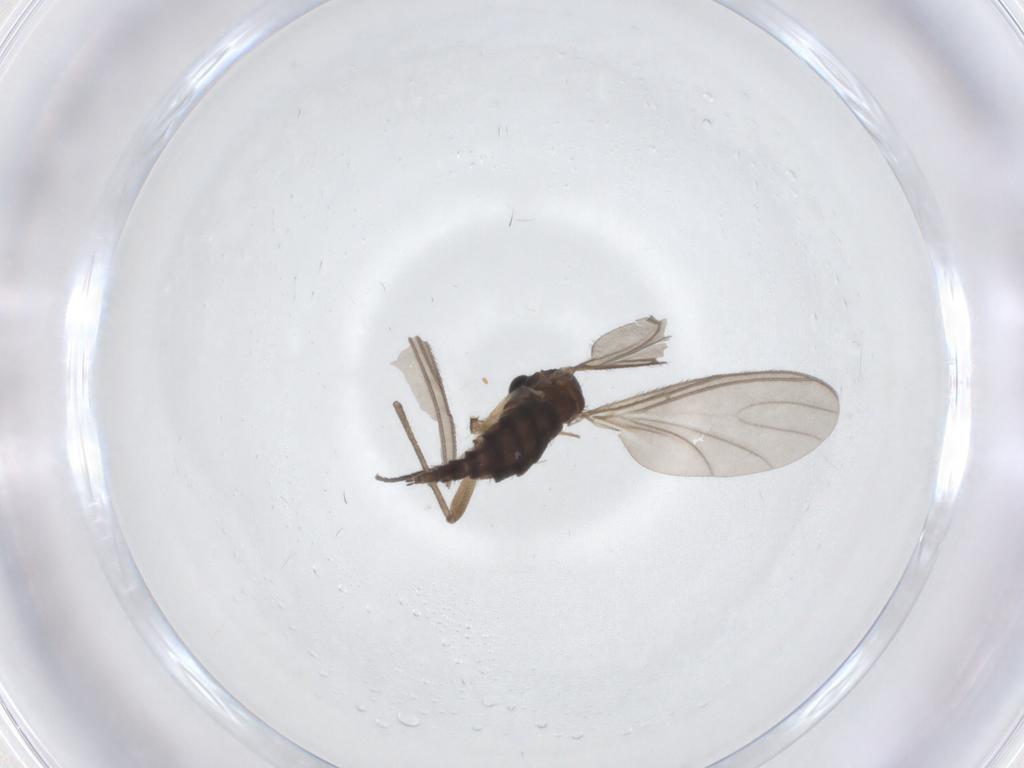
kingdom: Animalia
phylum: Arthropoda
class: Insecta
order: Diptera
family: Sciaridae
